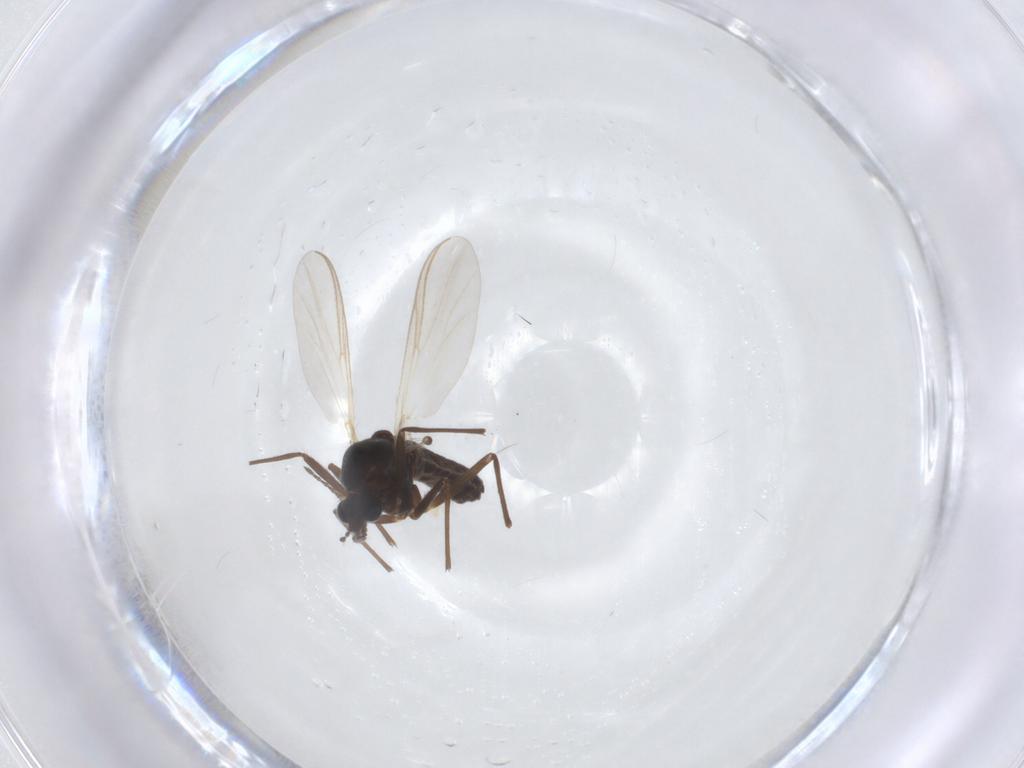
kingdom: Animalia
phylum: Arthropoda
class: Insecta
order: Diptera
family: Chironomidae
